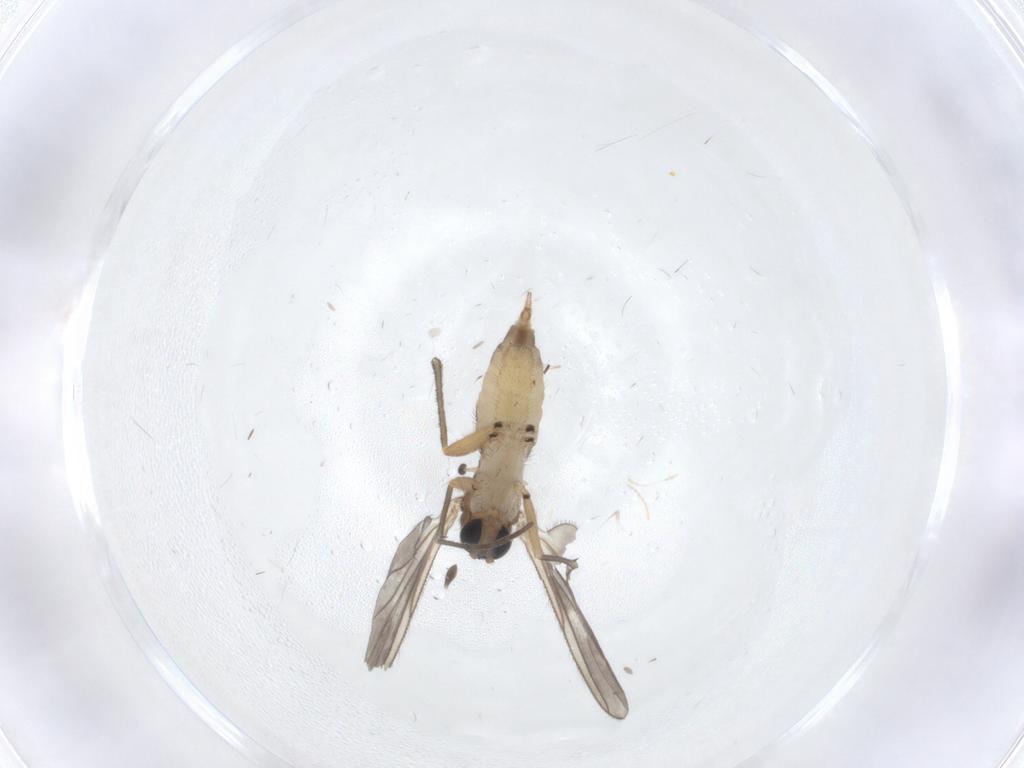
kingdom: Animalia
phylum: Arthropoda
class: Insecta
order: Diptera
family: Sciaridae
